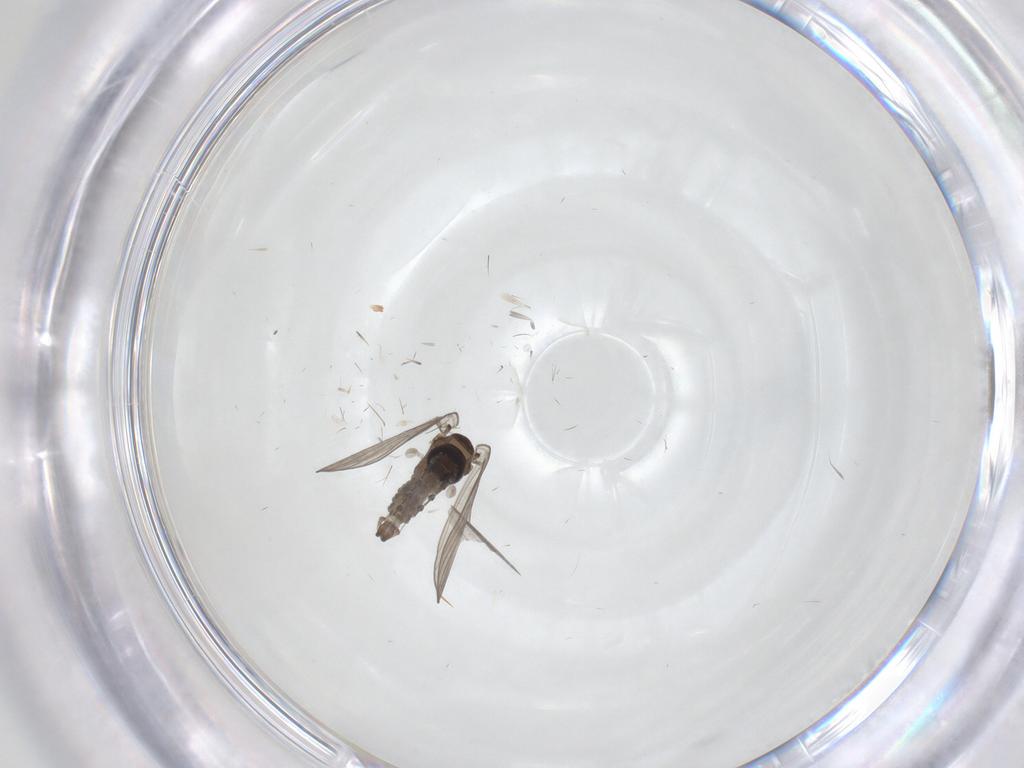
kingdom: Animalia
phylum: Arthropoda
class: Insecta
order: Diptera
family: Psychodidae
